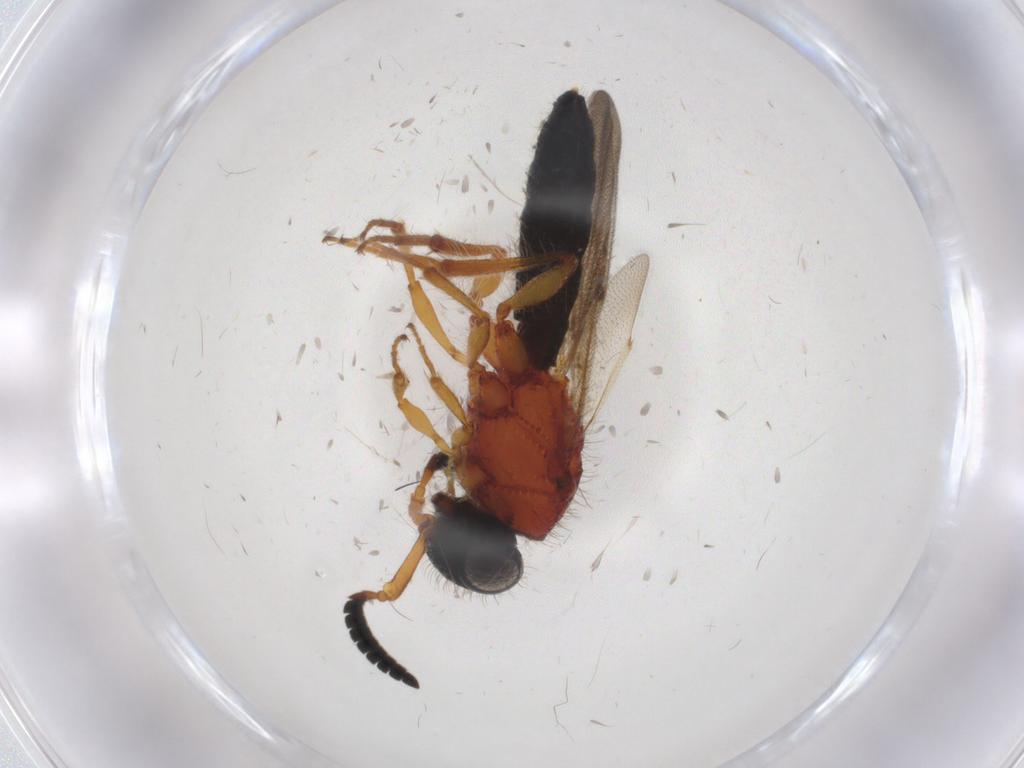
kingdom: Animalia
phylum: Arthropoda
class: Insecta
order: Hymenoptera
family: Scelionidae
